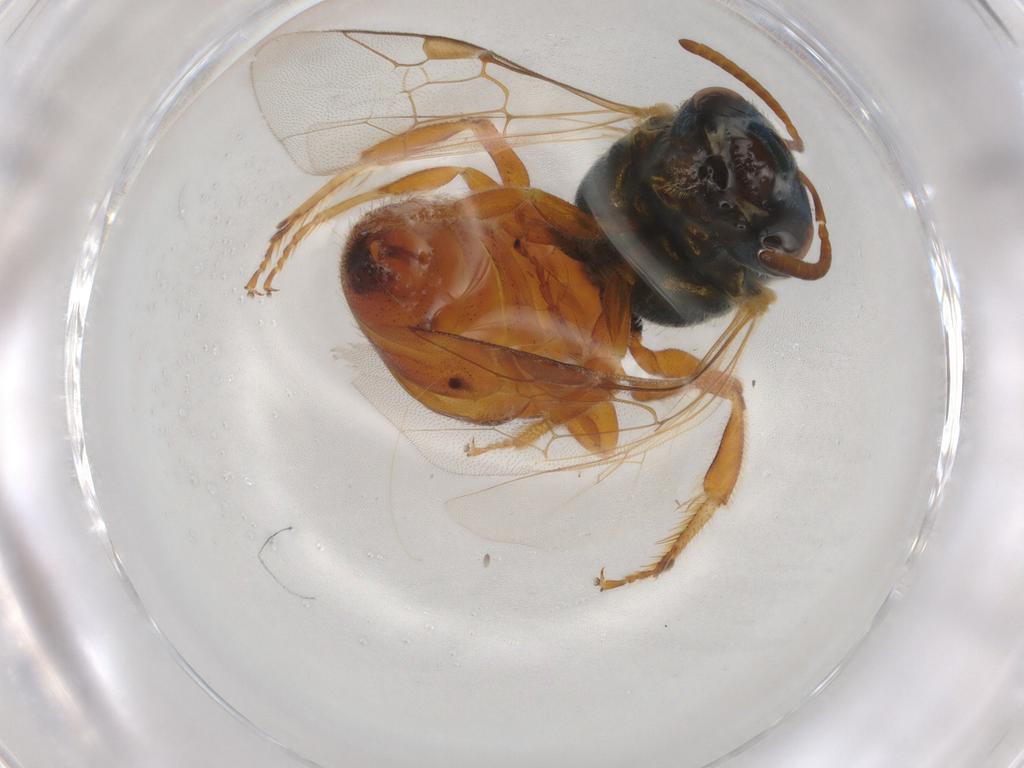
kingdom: Animalia
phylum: Arthropoda
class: Insecta
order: Hymenoptera
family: Halictidae
